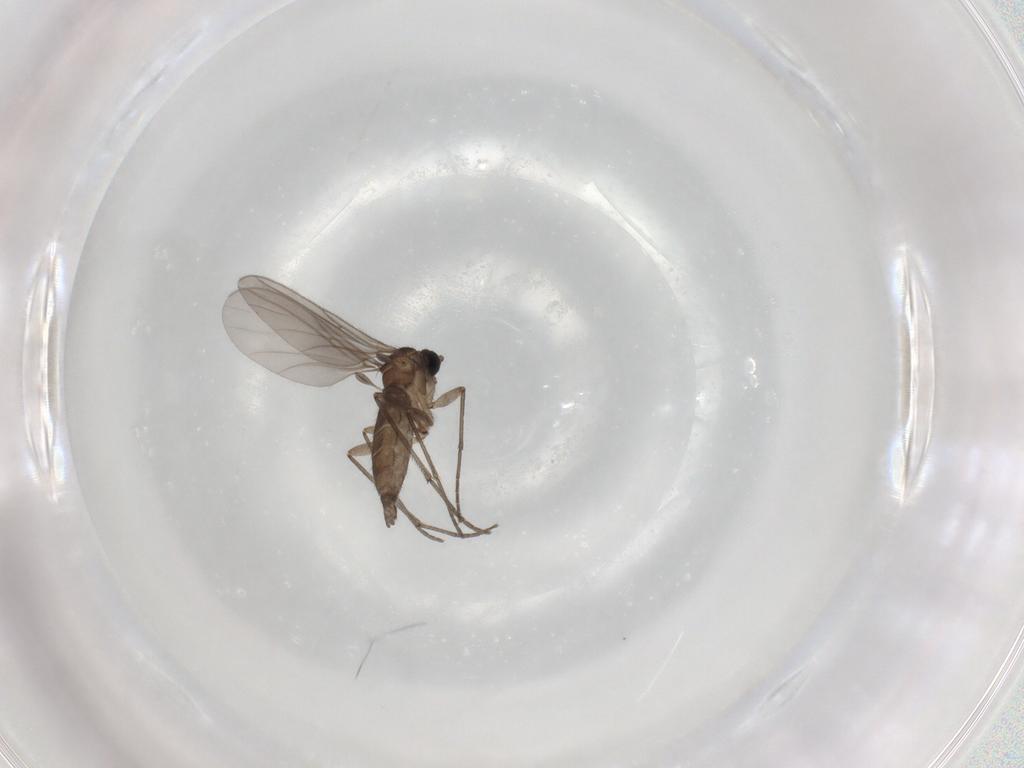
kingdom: Animalia
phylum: Arthropoda
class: Insecta
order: Diptera
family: Sciaridae
